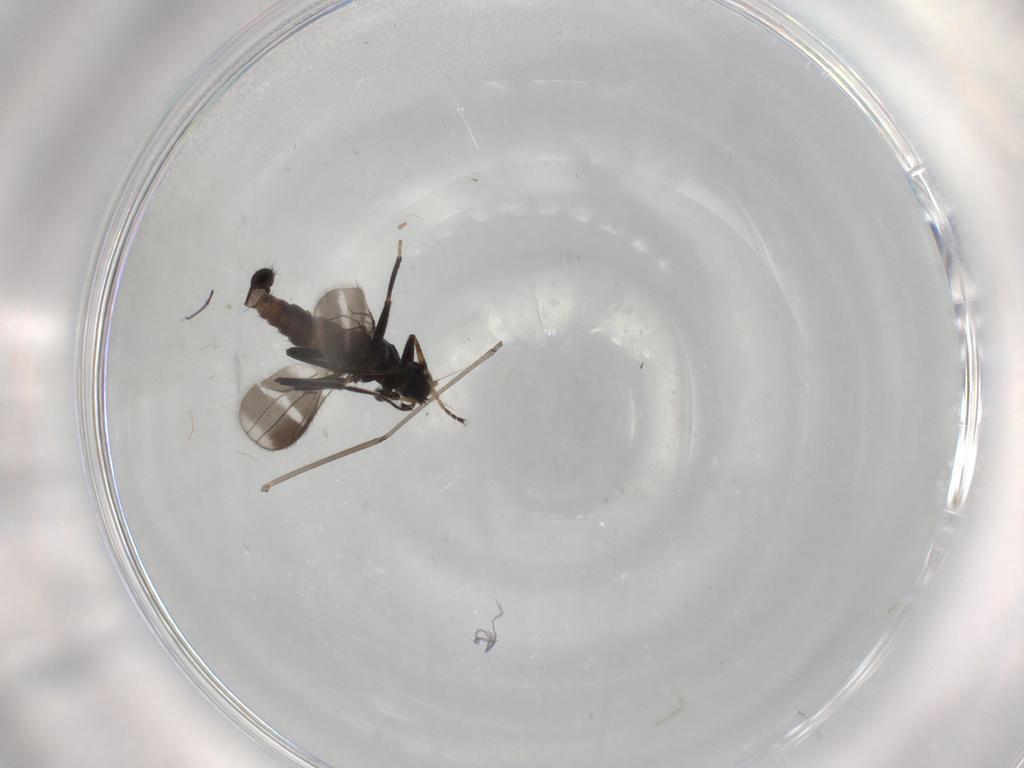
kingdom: Animalia
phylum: Arthropoda
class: Insecta
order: Diptera
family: Hybotidae
